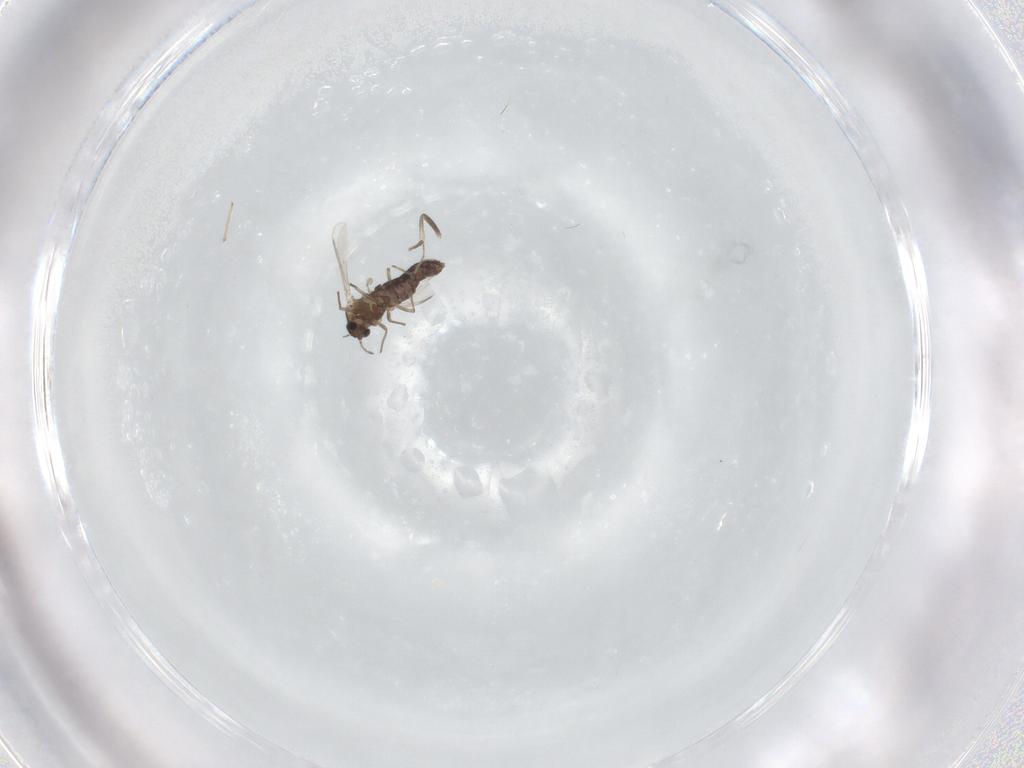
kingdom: Animalia
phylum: Arthropoda
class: Insecta
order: Diptera
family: Chironomidae
